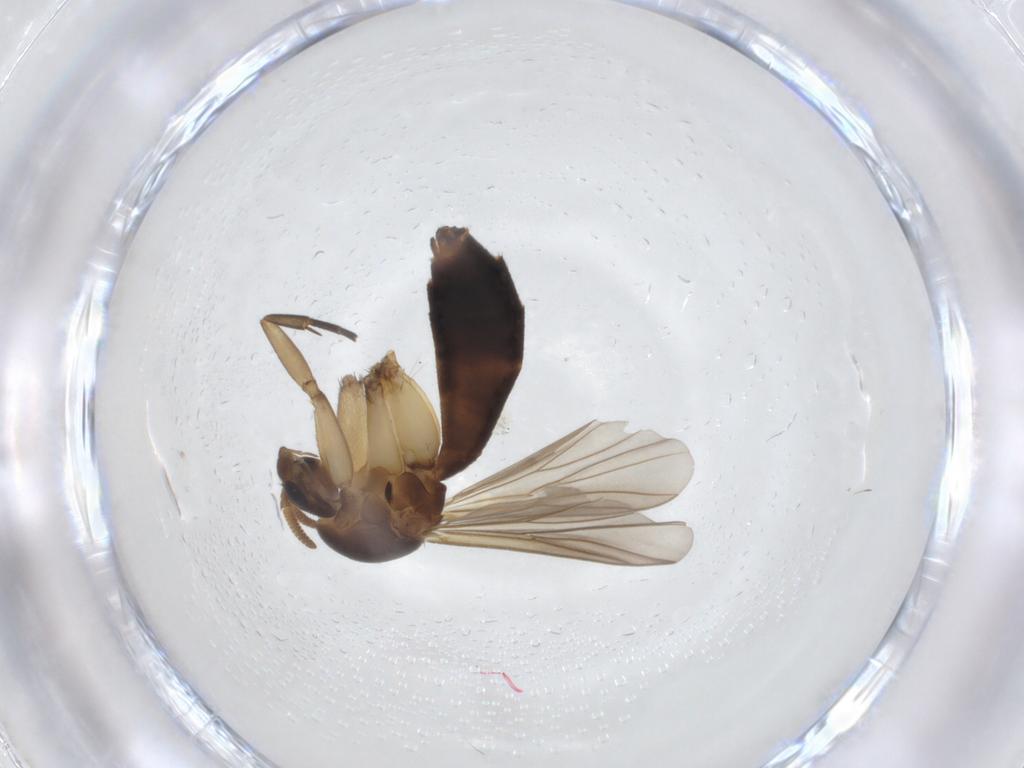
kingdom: Animalia
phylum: Arthropoda
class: Insecta
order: Diptera
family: Mycetophilidae
